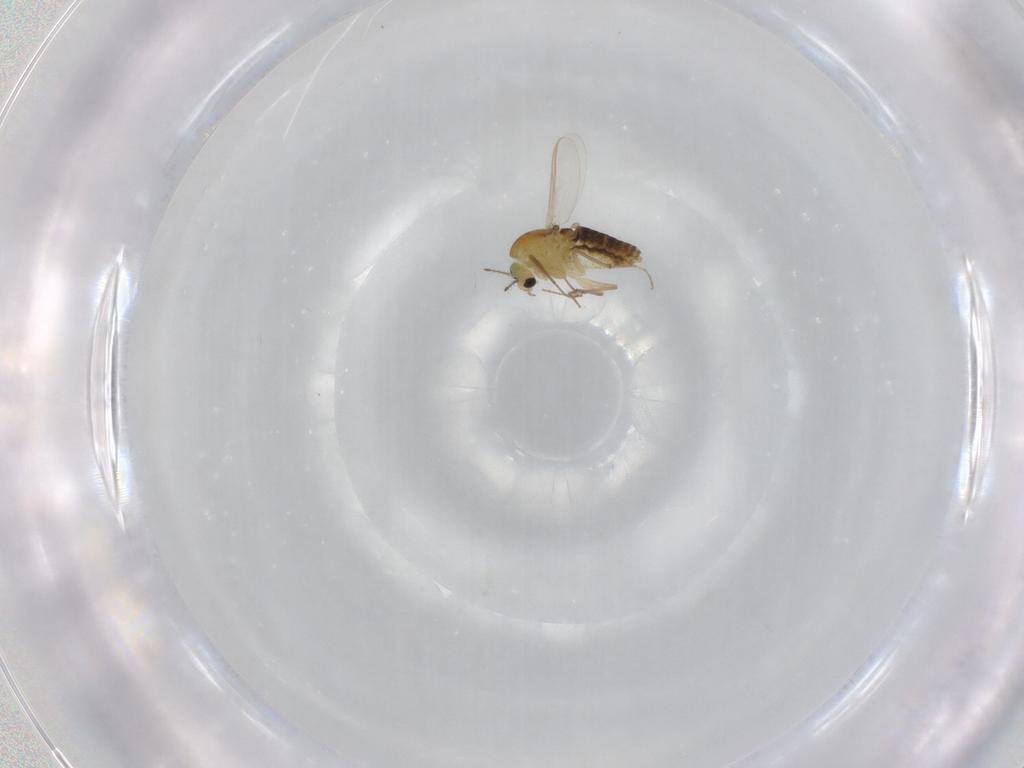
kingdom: Animalia
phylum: Arthropoda
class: Insecta
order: Diptera
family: Chironomidae
